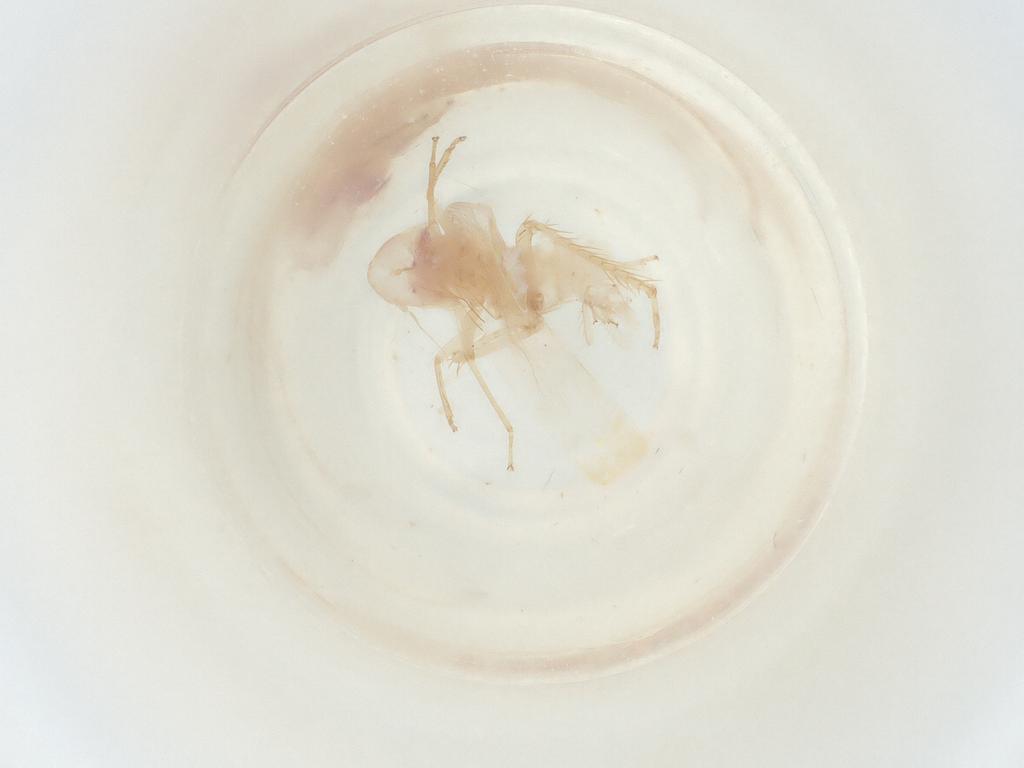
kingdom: Animalia
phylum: Arthropoda
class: Insecta
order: Hemiptera
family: Cicadellidae
